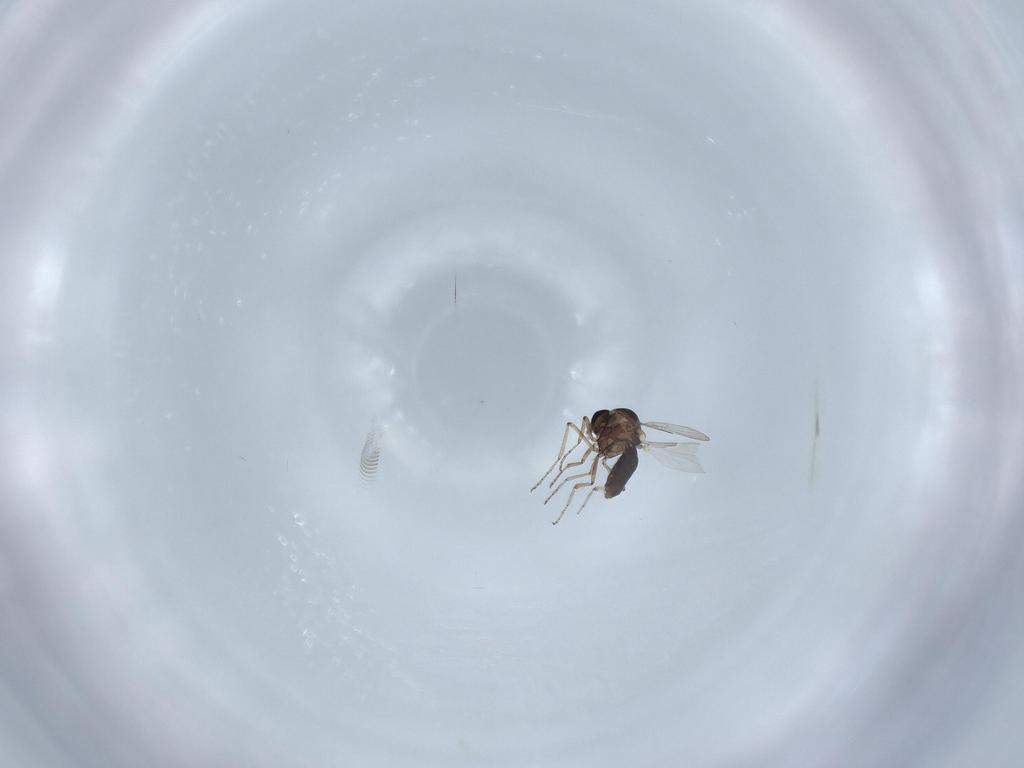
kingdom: Animalia
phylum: Arthropoda
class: Insecta
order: Diptera
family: Ceratopogonidae
